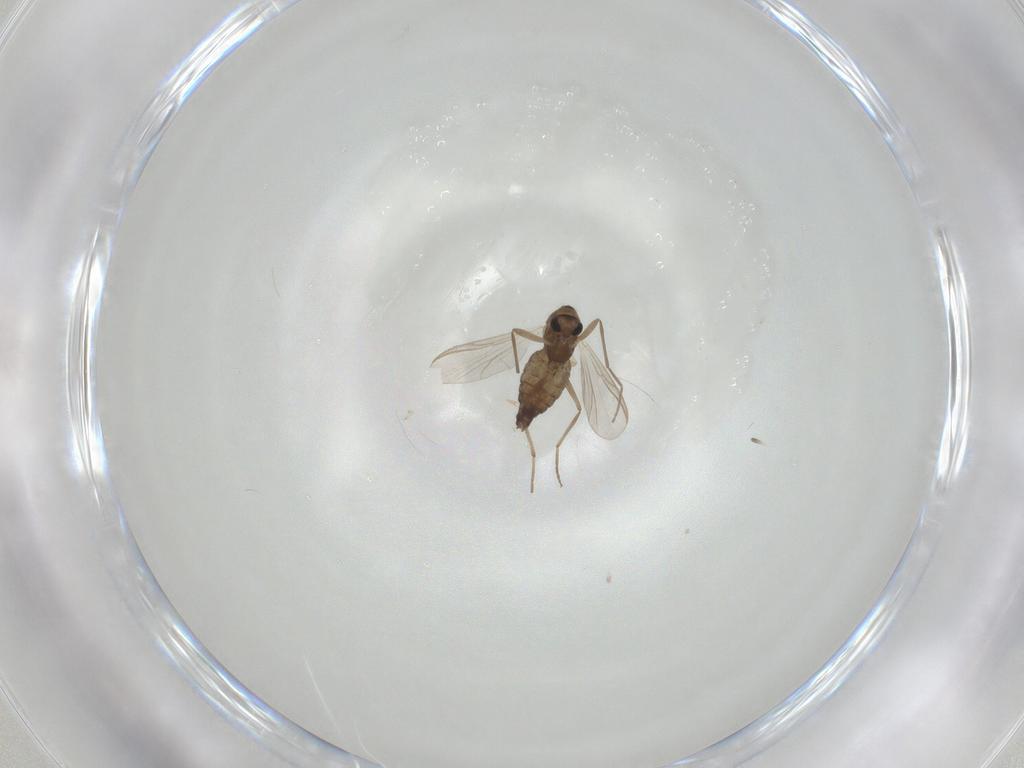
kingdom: Animalia
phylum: Arthropoda
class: Insecta
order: Diptera
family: Chironomidae
